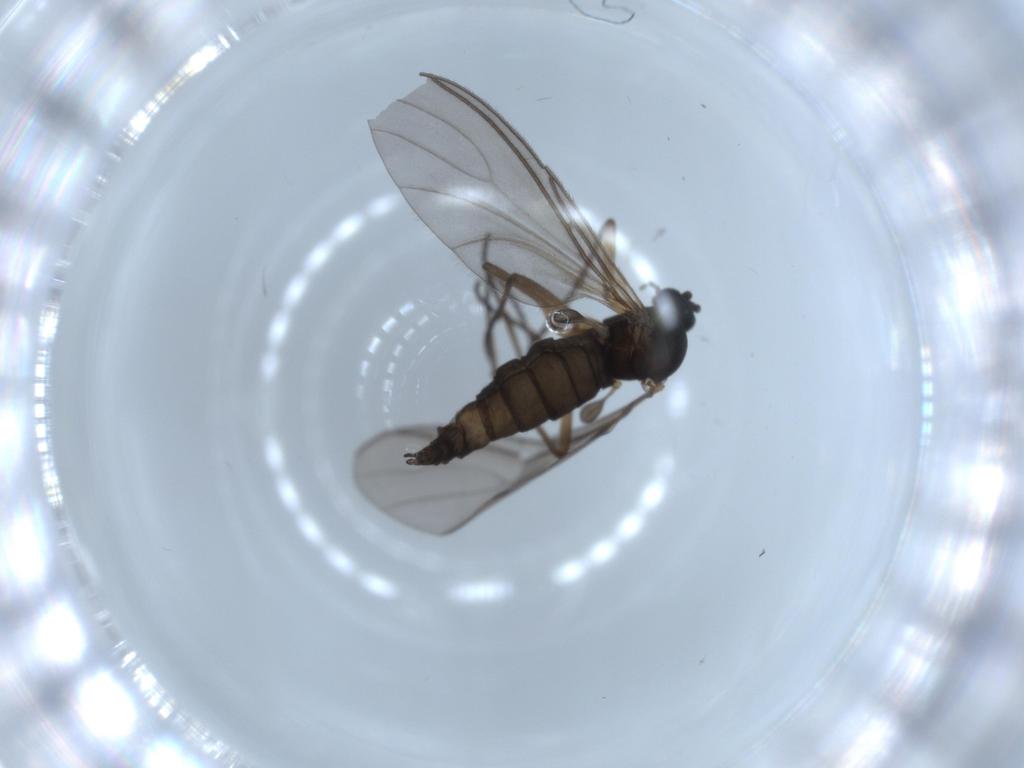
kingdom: Animalia
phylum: Arthropoda
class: Insecta
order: Diptera
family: Sciaridae
